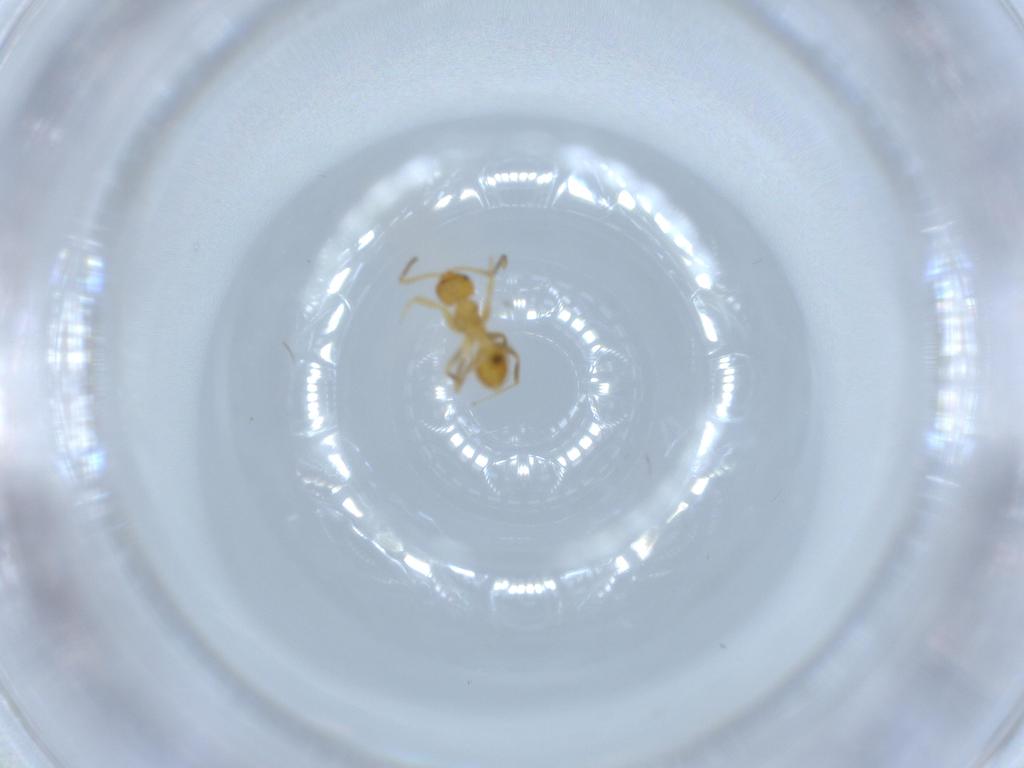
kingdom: Animalia
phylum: Arthropoda
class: Insecta
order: Hymenoptera
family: Formicidae
